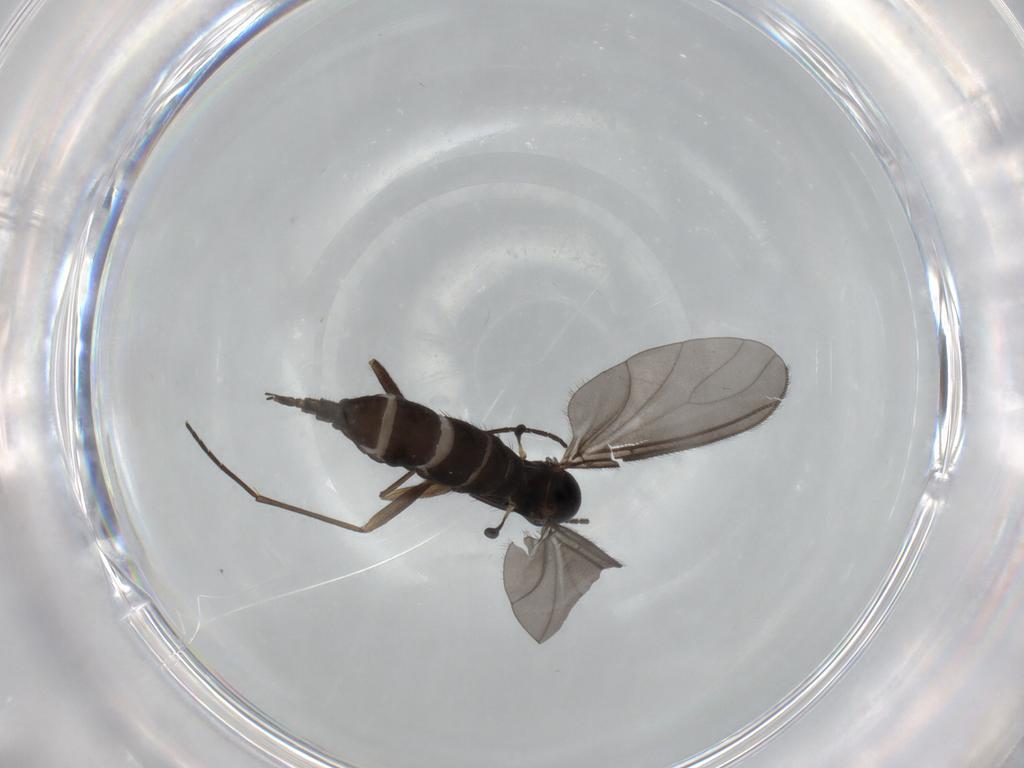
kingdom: Animalia
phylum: Arthropoda
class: Insecta
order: Diptera
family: Sciaridae
